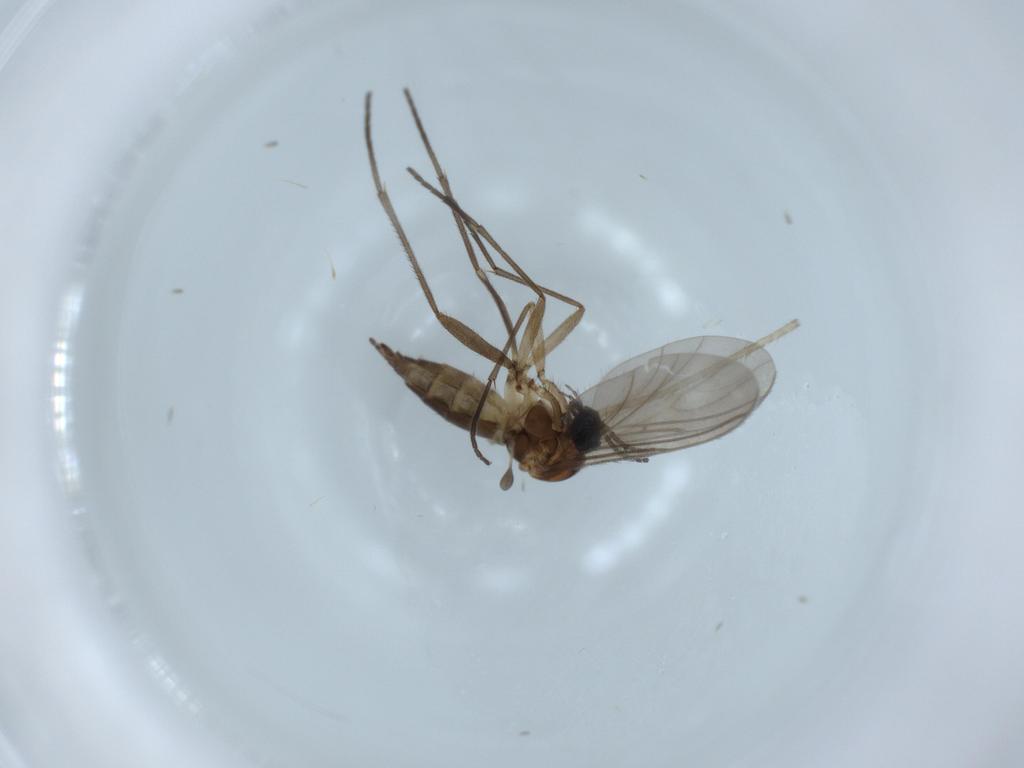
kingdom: Animalia
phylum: Arthropoda
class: Insecta
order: Diptera
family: Sciaridae
